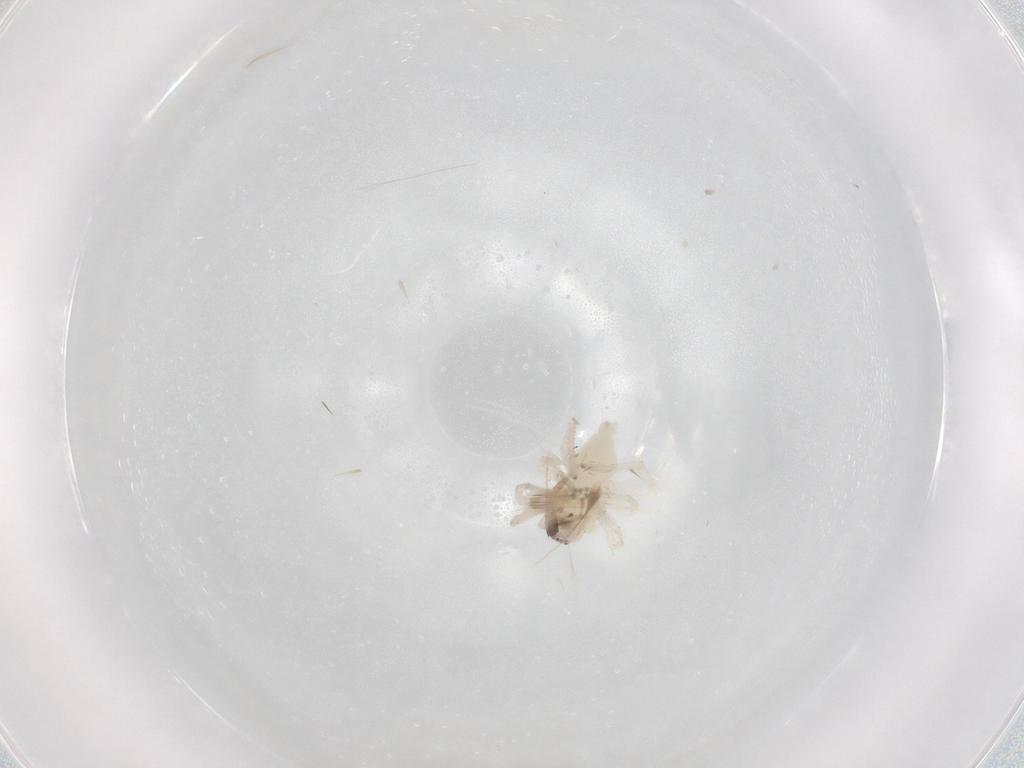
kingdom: Animalia
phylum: Arthropoda
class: Arachnida
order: Araneae
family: Anyphaenidae
